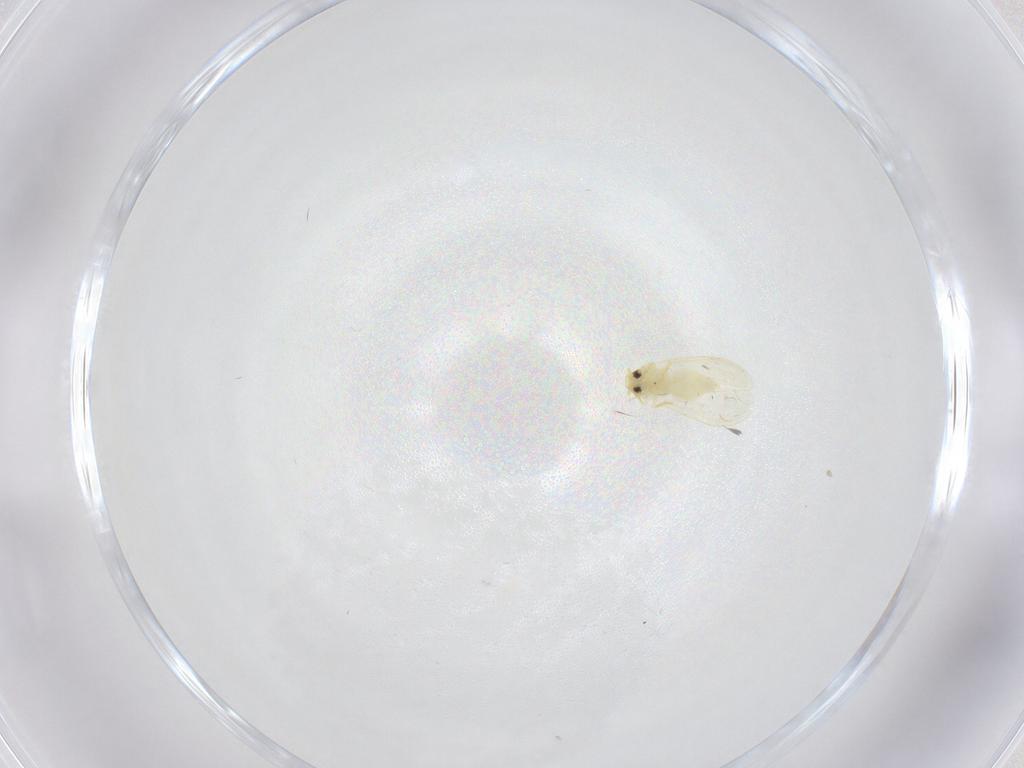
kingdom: Animalia
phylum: Arthropoda
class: Insecta
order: Hemiptera
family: Aleyrodidae
